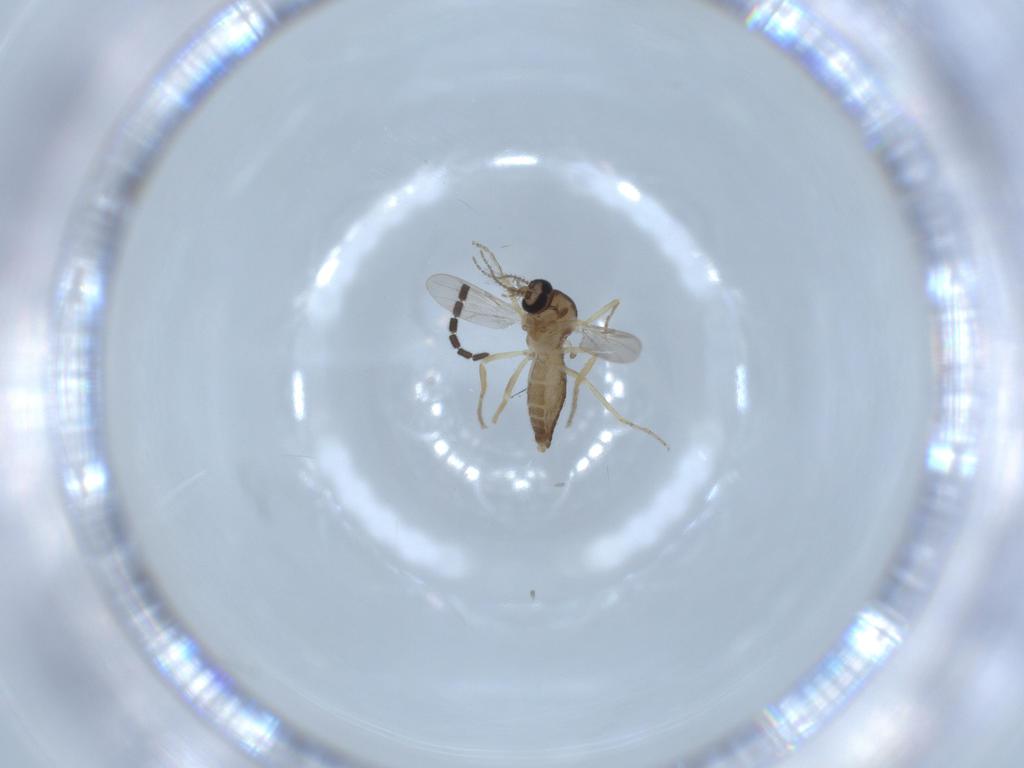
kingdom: Animalia
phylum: Arthropoda
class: Insecta
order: Diptera
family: Ceratopogonidae
